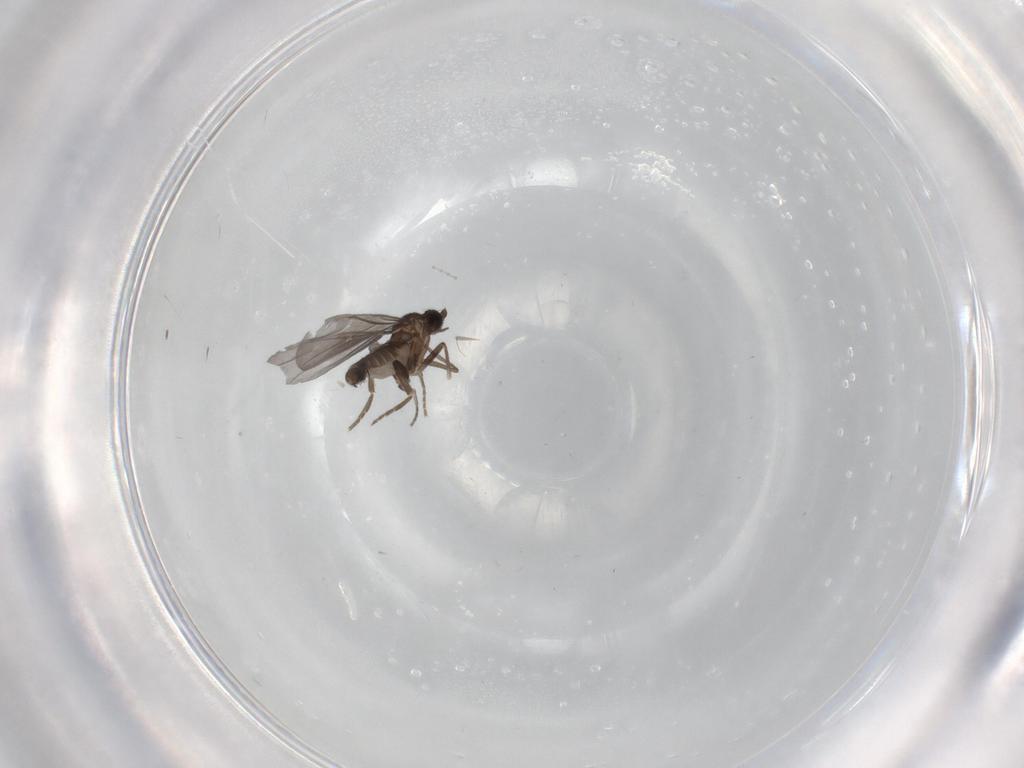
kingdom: Animalia
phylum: Arthropoda
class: Insecta
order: Diptera
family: Phoridae
